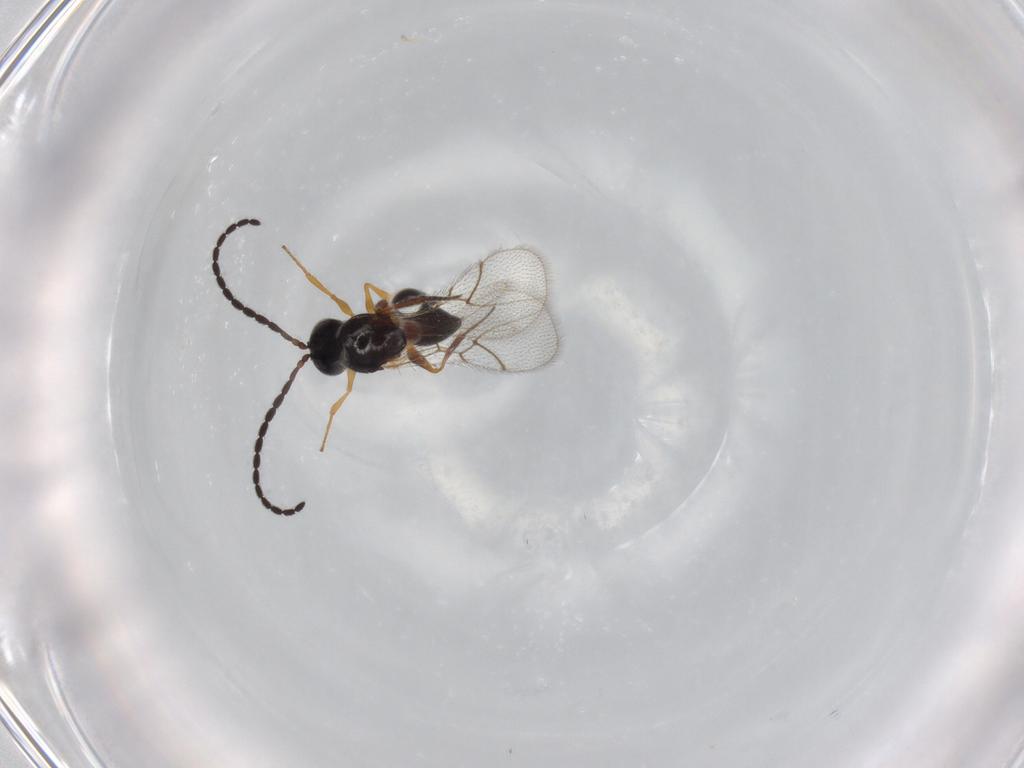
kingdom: Animalia
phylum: Arthropoda
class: Insecta
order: Hymenoptera
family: Figitidae
